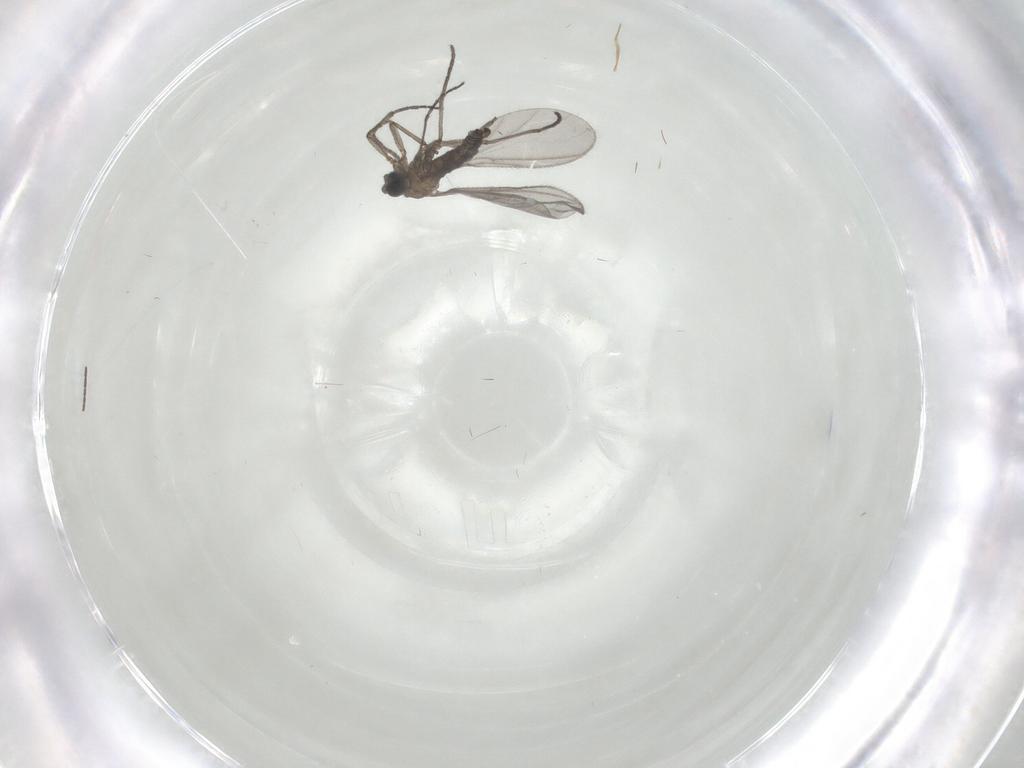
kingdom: Animalia
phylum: Arthropoda
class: Insecta
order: Diptera
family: Sciaridae
